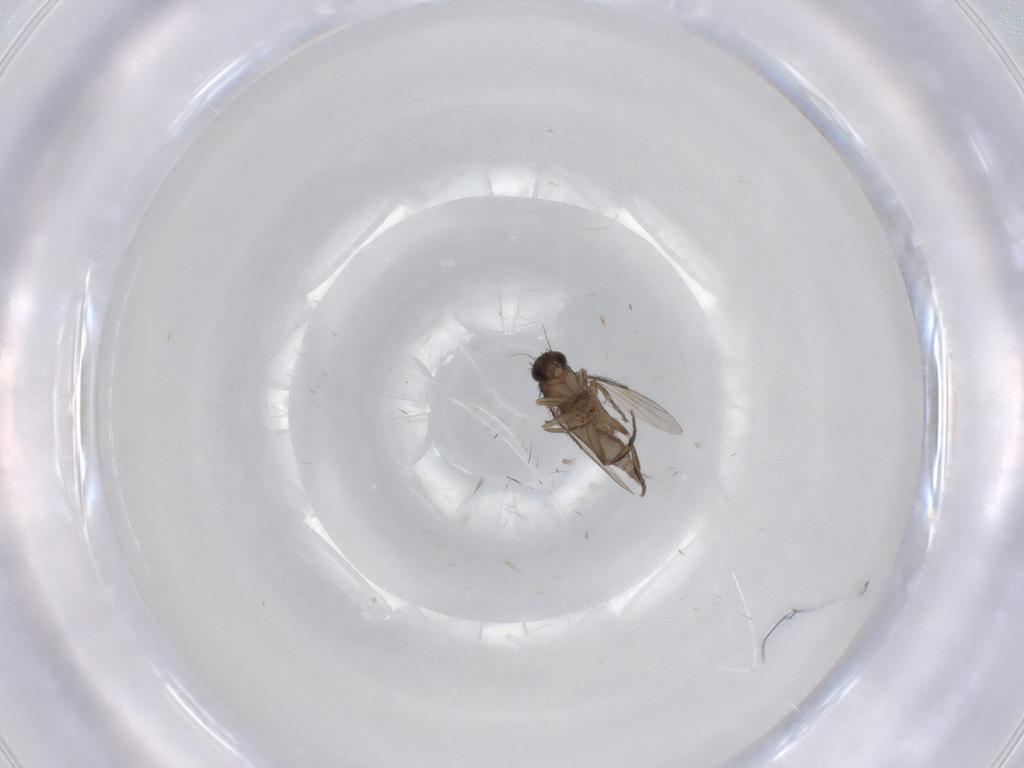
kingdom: Animalia
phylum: Arthropoda
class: Insecta
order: Diptera
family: Phoridae
